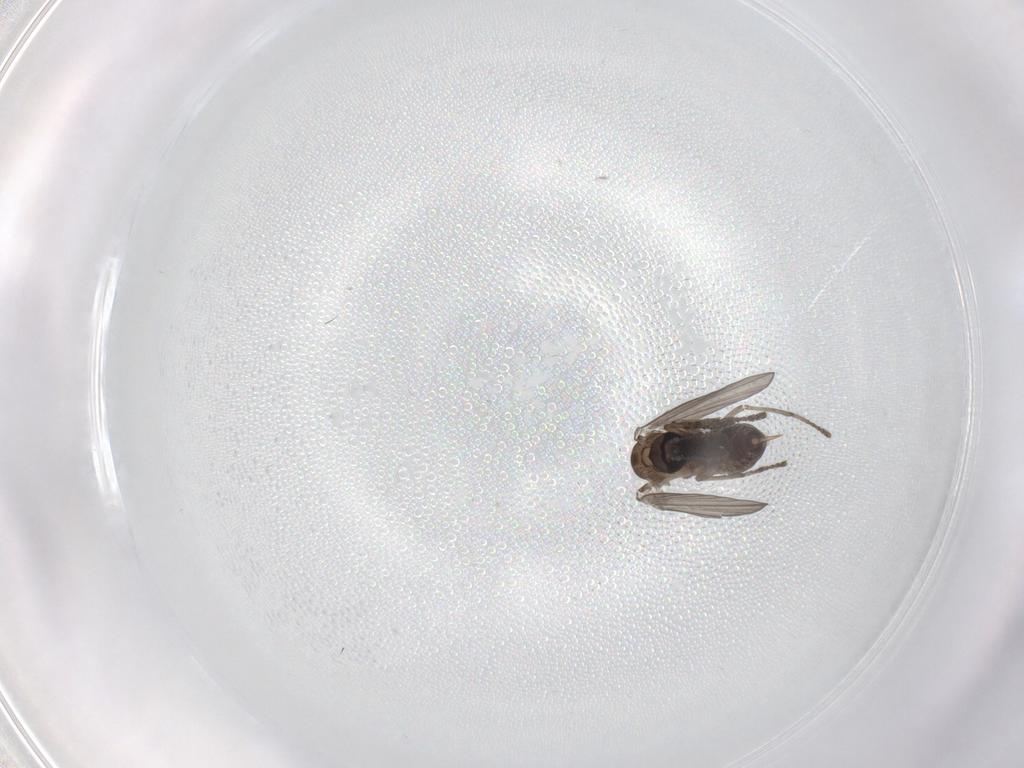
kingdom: Animalia
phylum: Arthropoda
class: Insecta
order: Diptera
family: Psychodidae
